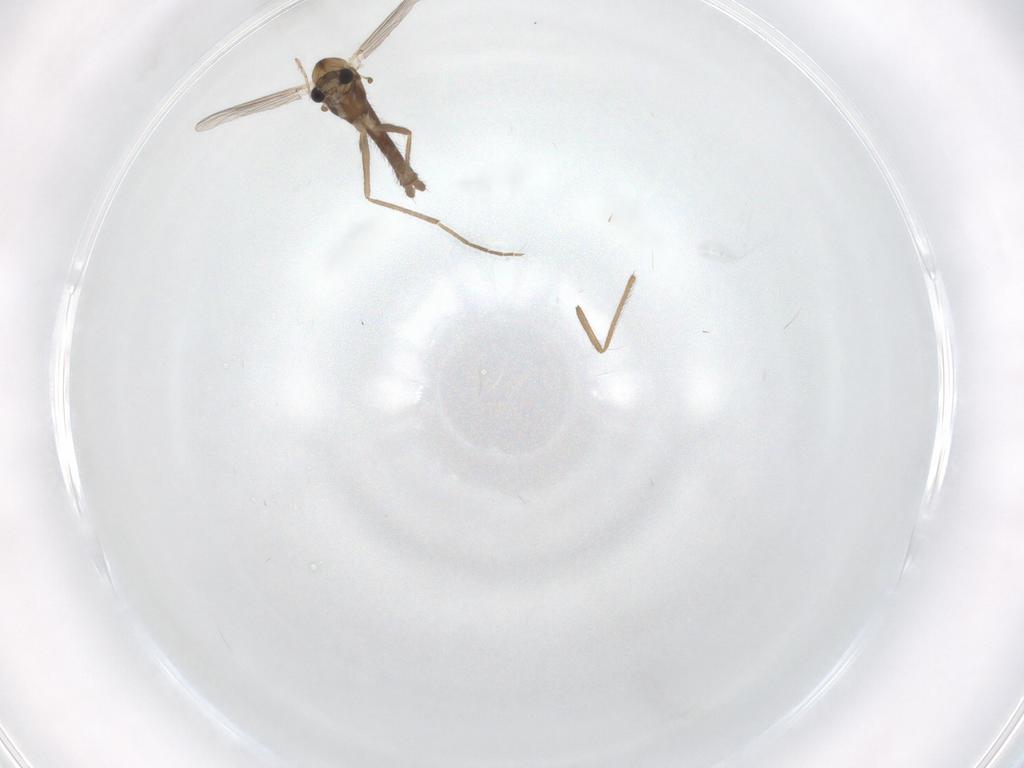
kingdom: Animalia
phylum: Arthropoda
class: Insecta
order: Diptera
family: Chironomidae
